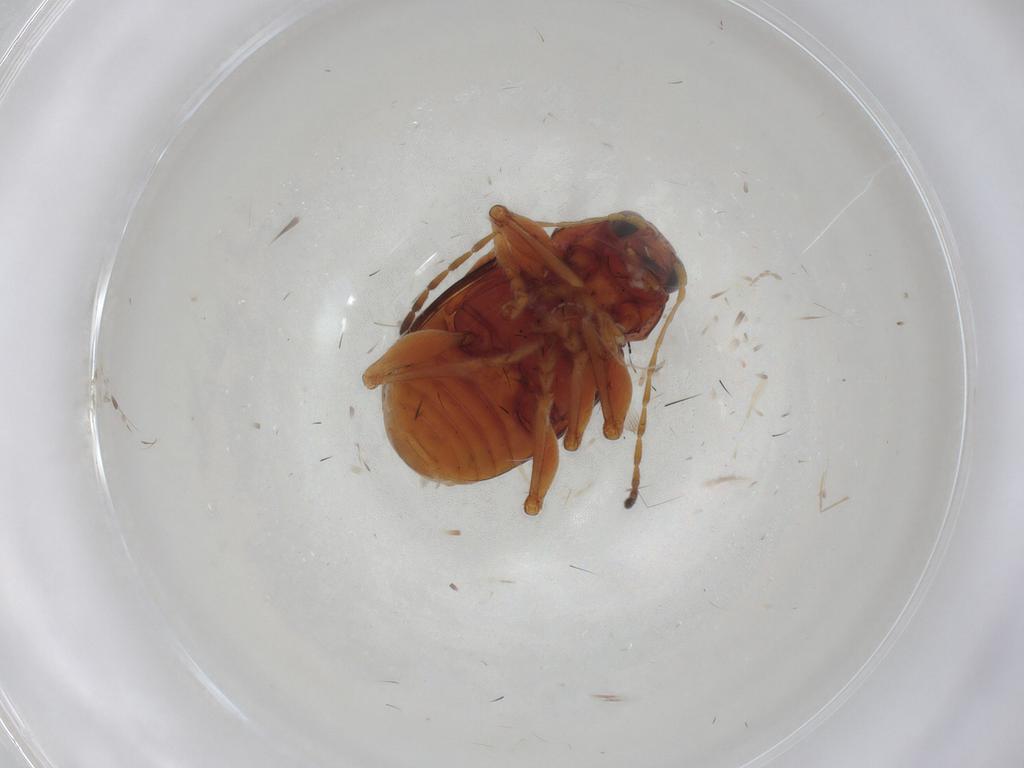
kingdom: Animalia
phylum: Arthropoda
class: Insecta
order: Coleoptera
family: Chrysomelidae
